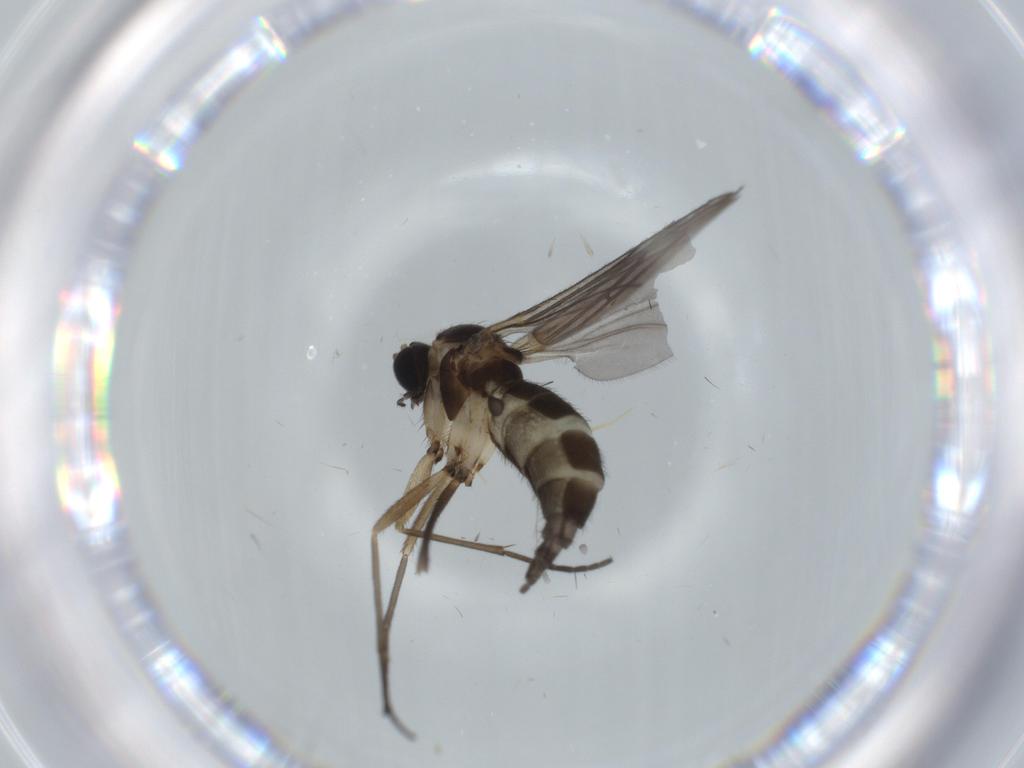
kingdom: Animalia
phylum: Arthropoda
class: Insecta
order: Diptera
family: Sciaridae
